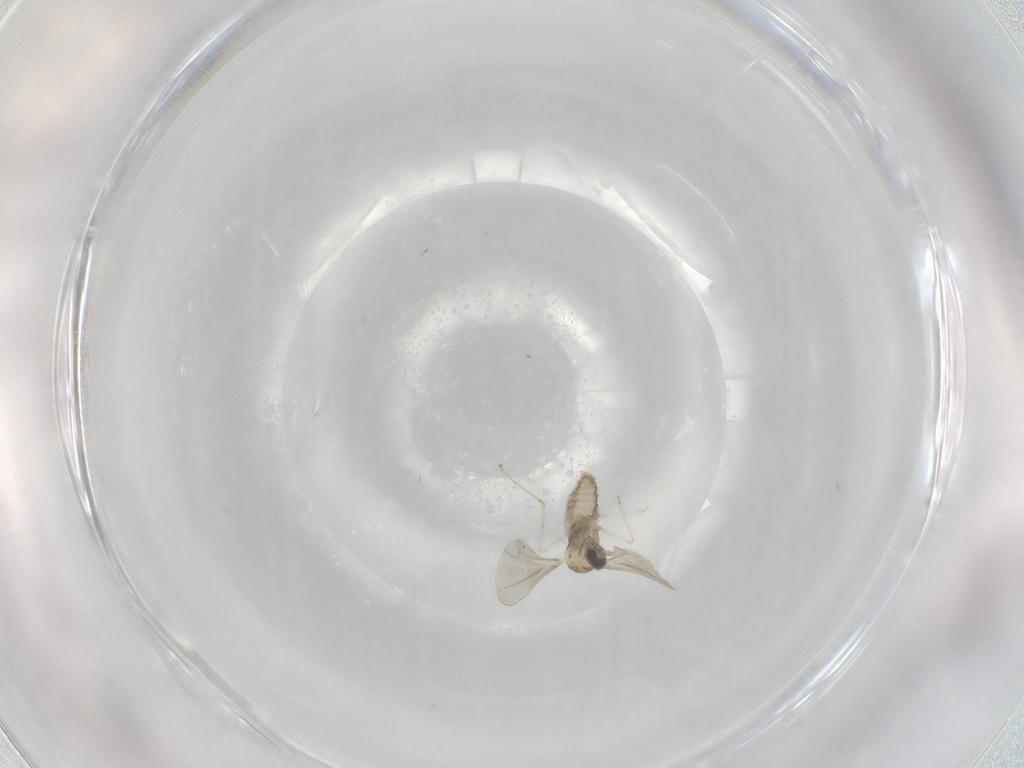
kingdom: Animalia
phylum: Arthropoda
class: Insecta
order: Diptera
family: Cecidomyiidae
